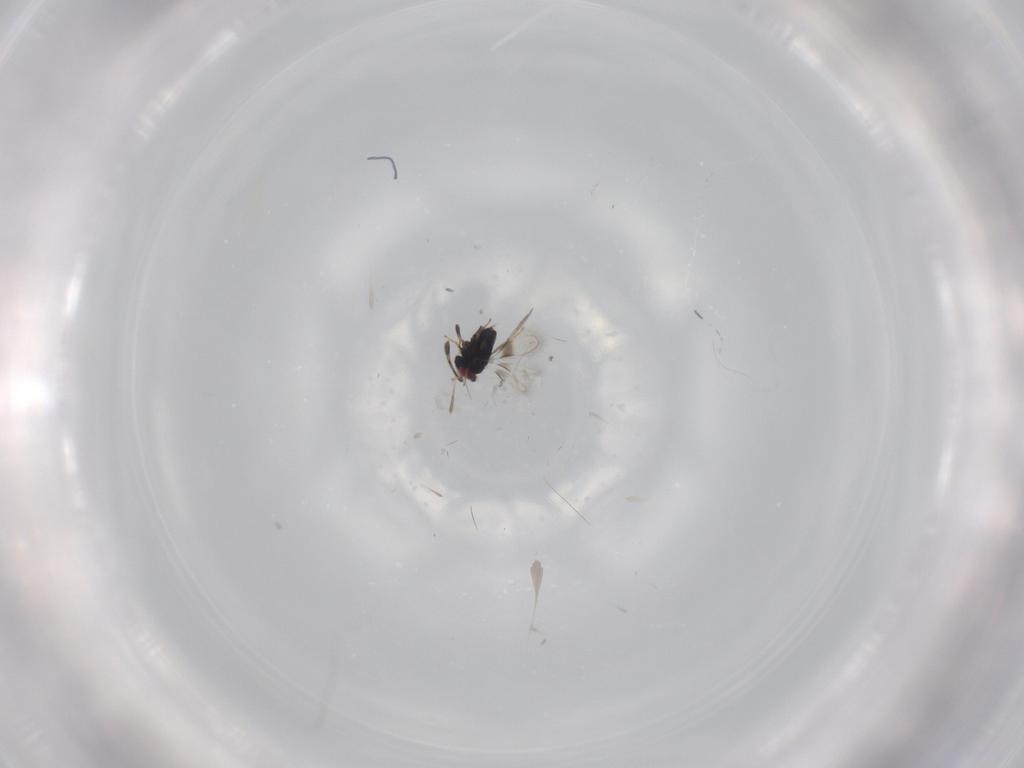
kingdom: Animalia
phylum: Arthropoda
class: Insecta
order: Hymenoptera
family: Azotidae
